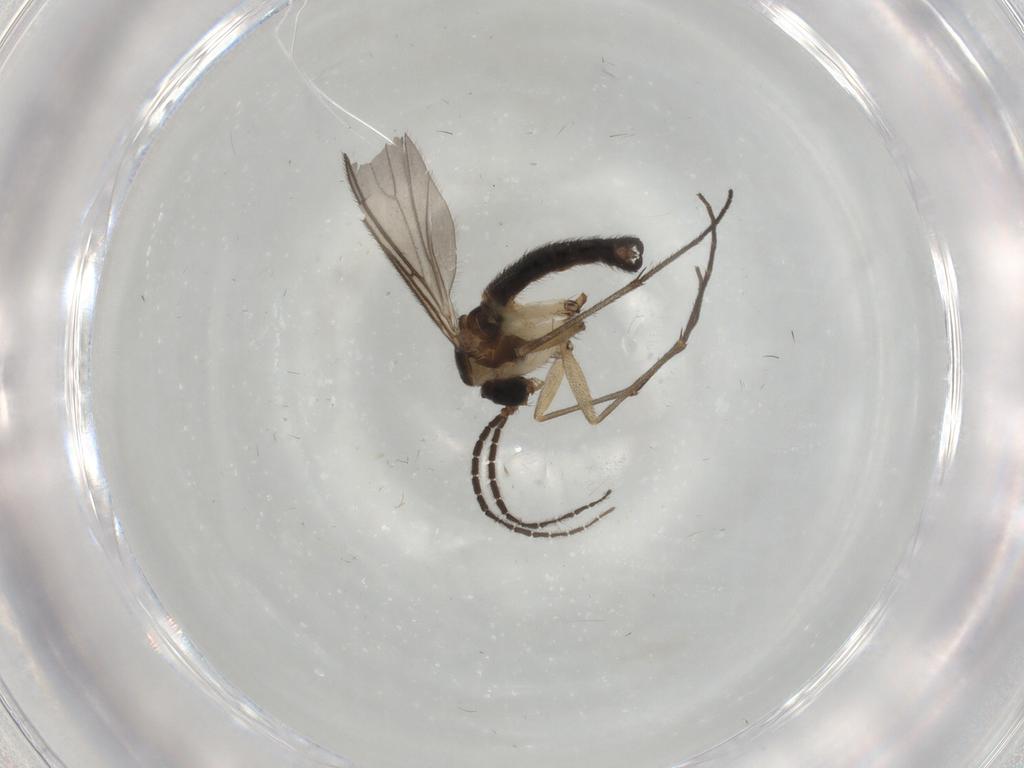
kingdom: Animalia
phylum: Arthropoda
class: Insecta
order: Diptera
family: Sciaridae
